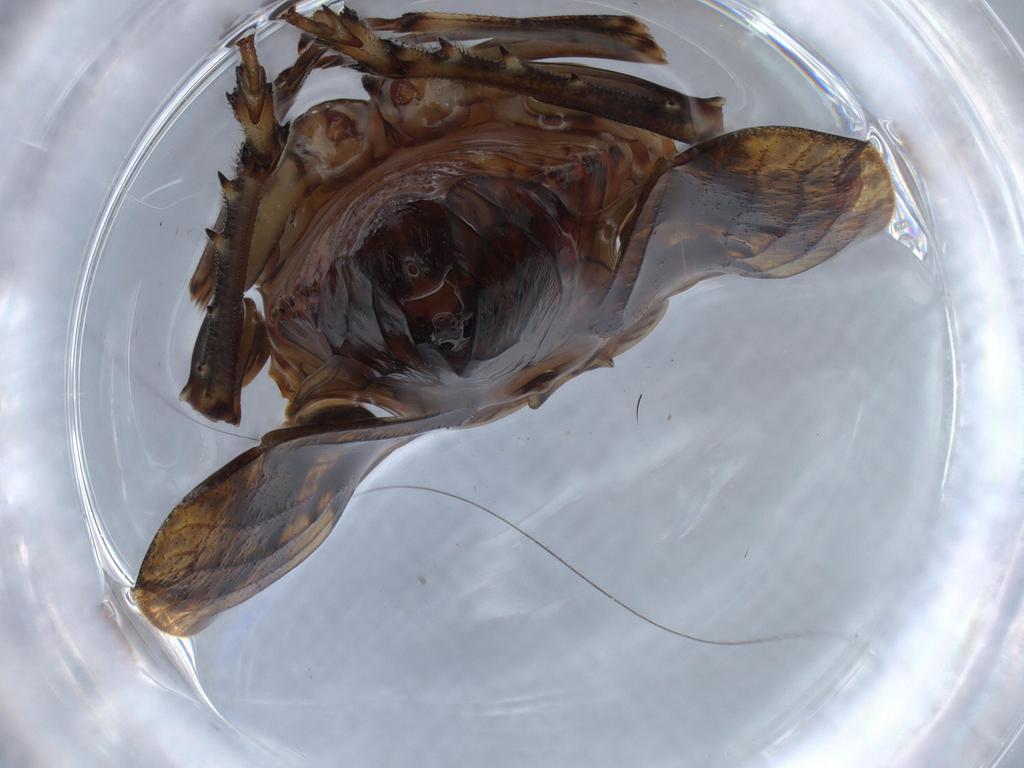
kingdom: Animalia
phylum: Arthropoda
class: Insecta
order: Hemiptera
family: Issidae
